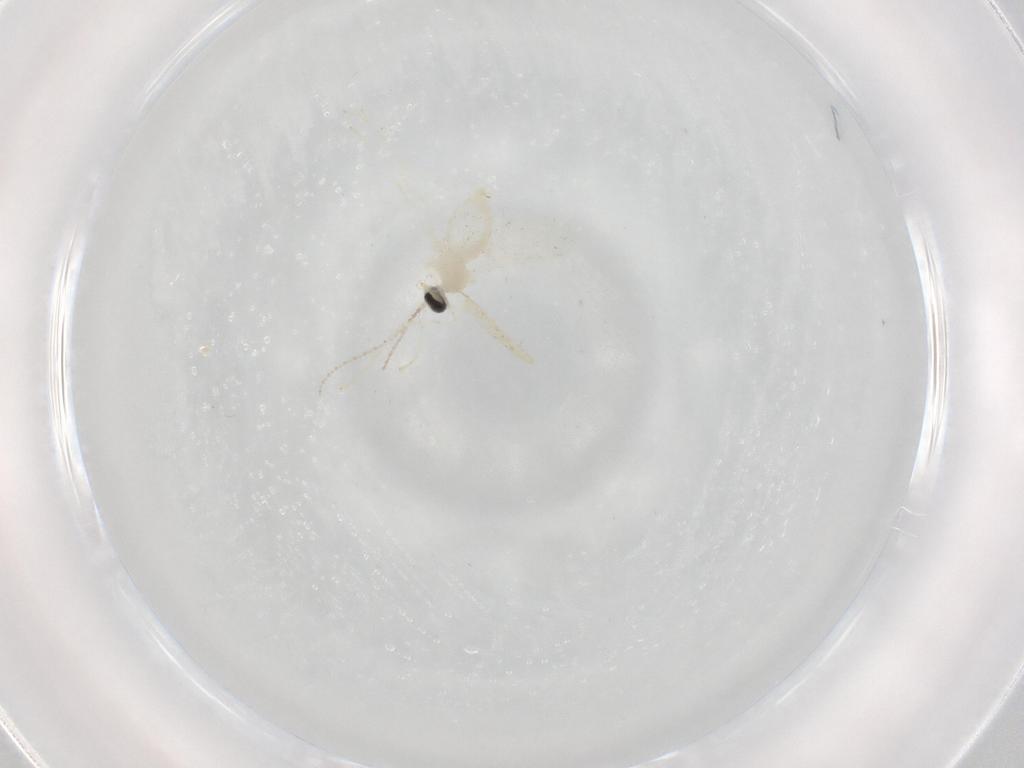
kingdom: Animalia
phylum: Arthropoda
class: Insecta
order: Diptera
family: Cecidomyiidae
